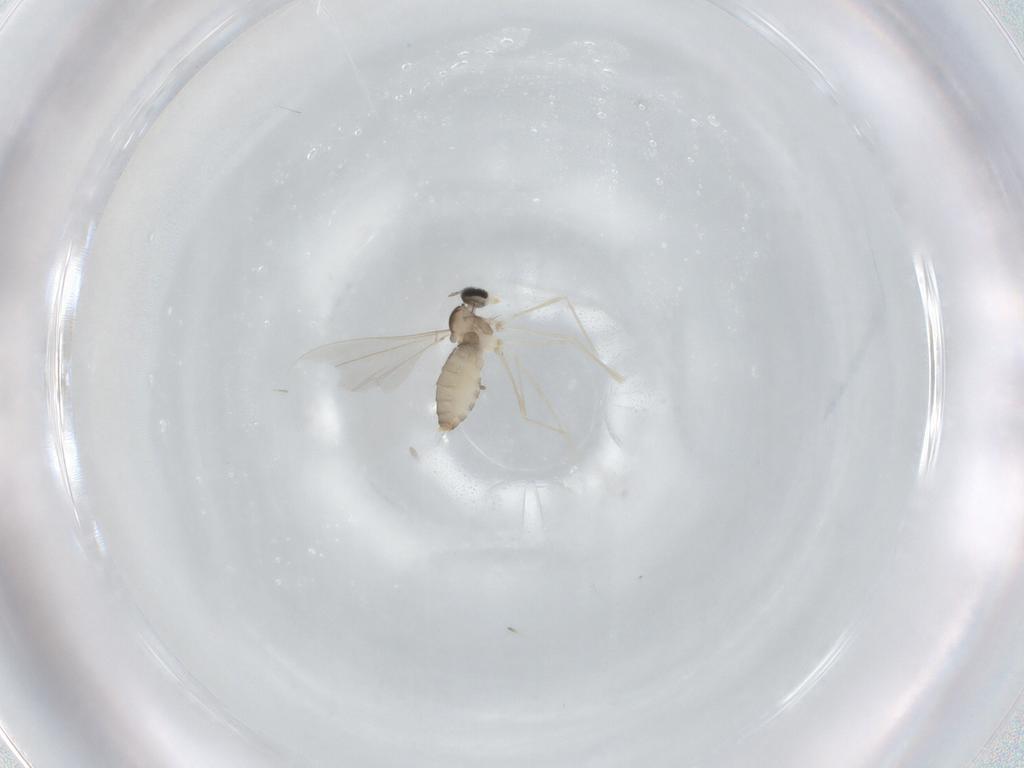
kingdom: Animalia
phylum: Arthropoda
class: Insecta
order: Diptera
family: Cecidomyiidae
